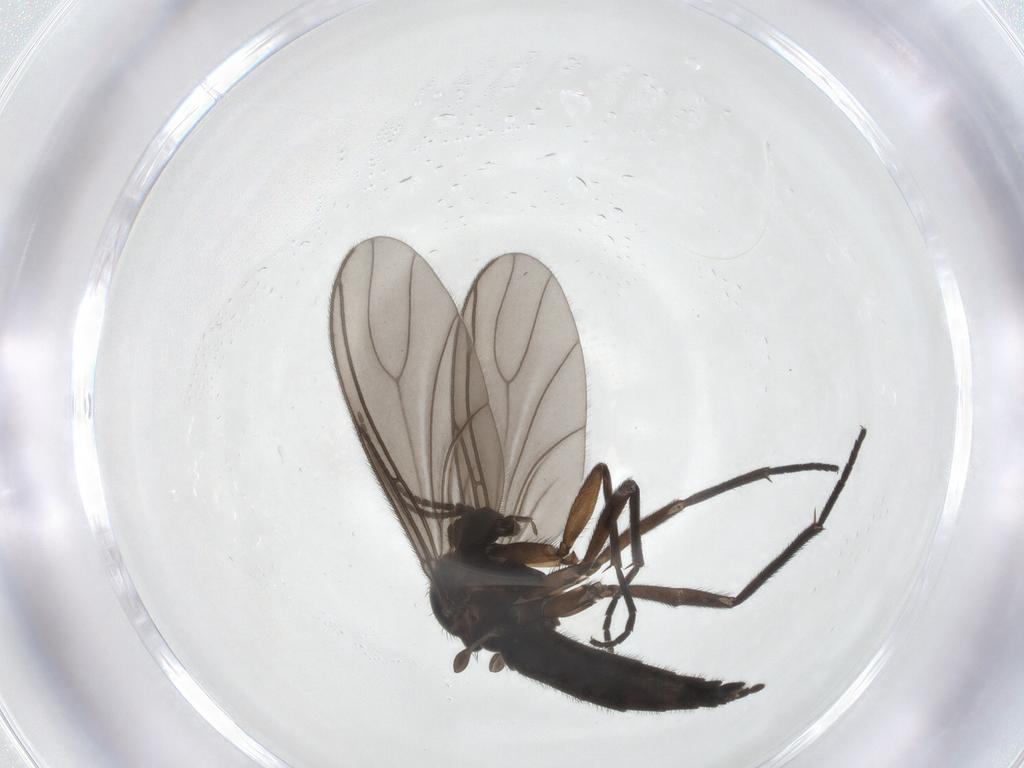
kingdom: Animalia
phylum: Arthropoda
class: Insecta
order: Diptera
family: Sciaridae
